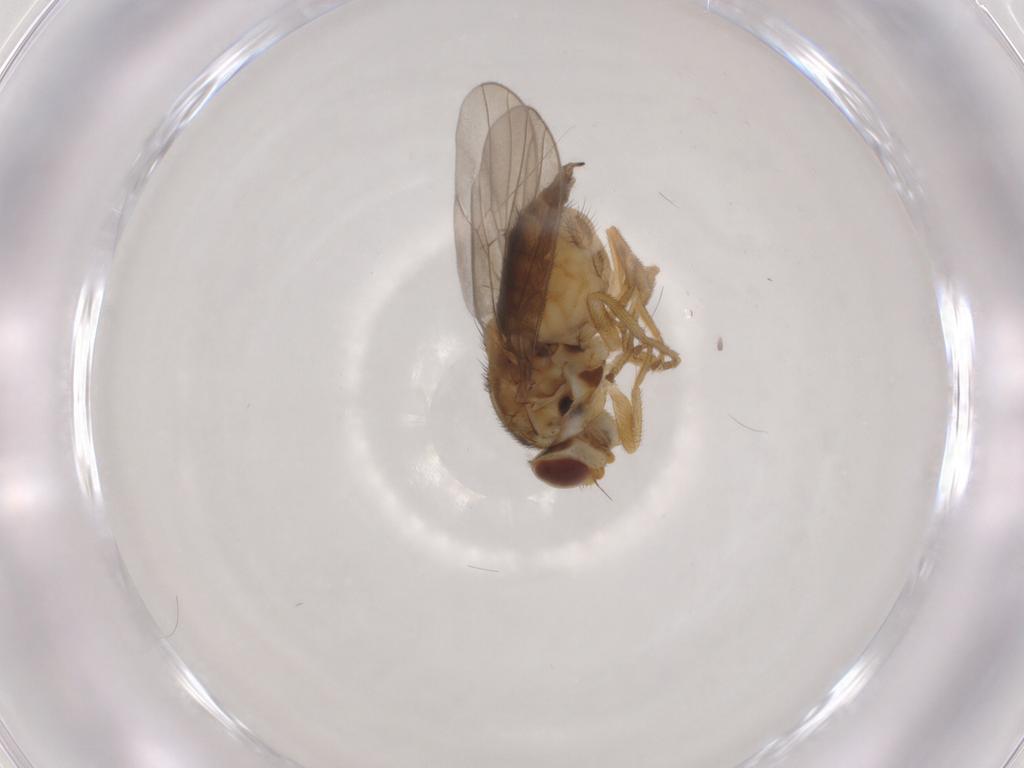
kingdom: Animalia
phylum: Arthropoda
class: Insecta
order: Diptera
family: Chloropidae
